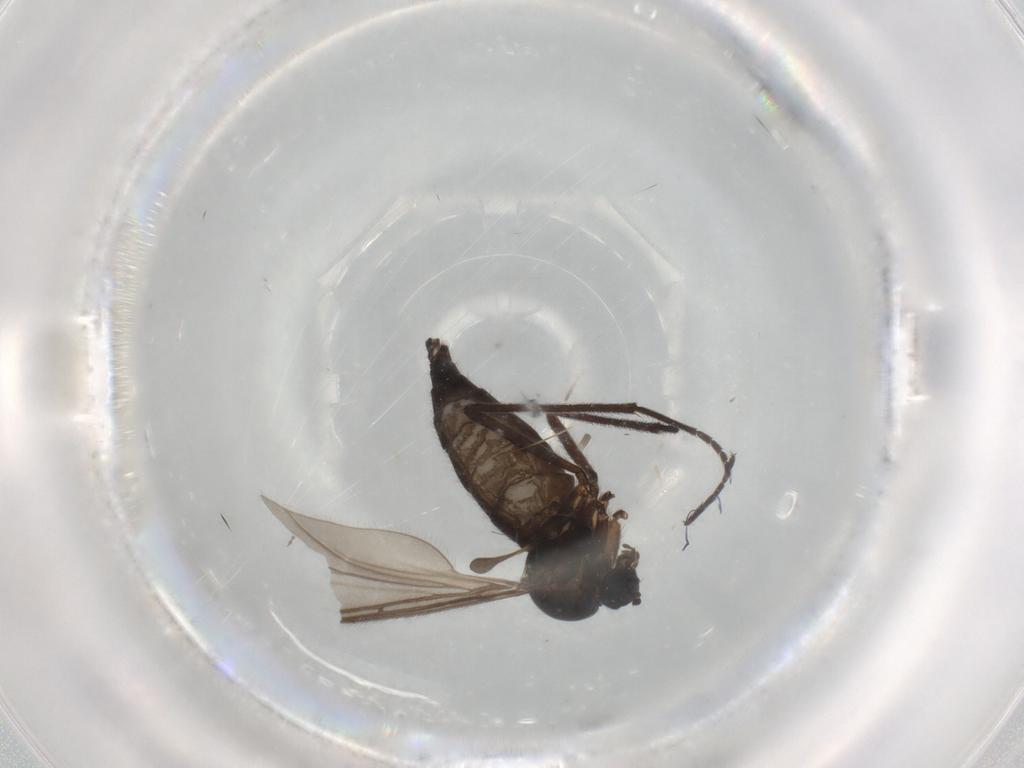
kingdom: Animalia
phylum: Arthropoda
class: Insecta
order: Diptera
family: Sciaridae
